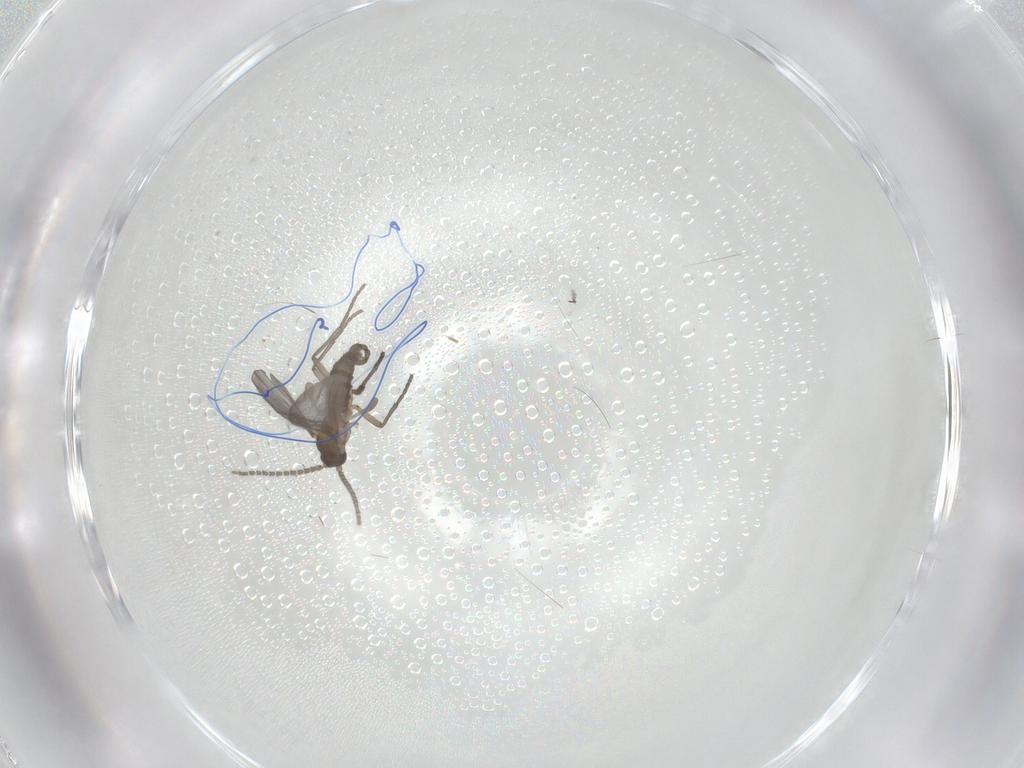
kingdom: Animalia
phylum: Arthropoda
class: Insecta
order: Diptera
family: Sciaridae
